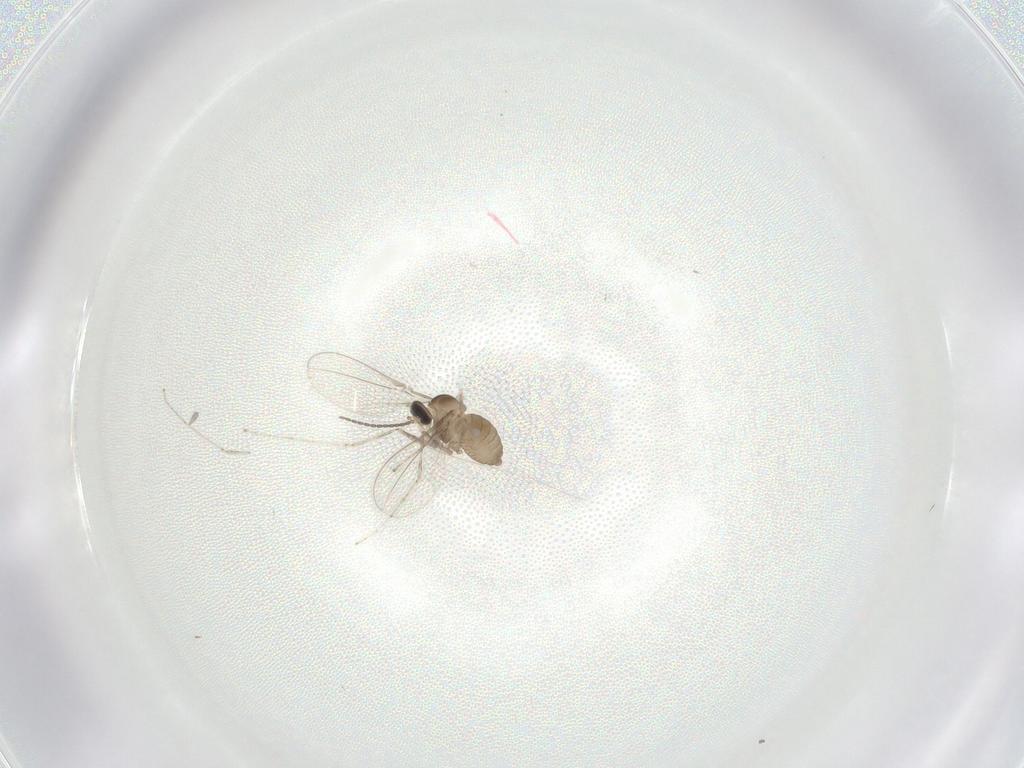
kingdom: Animalia
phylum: Arthropoda
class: Insecta
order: Diptera
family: Cecidomyiidae
